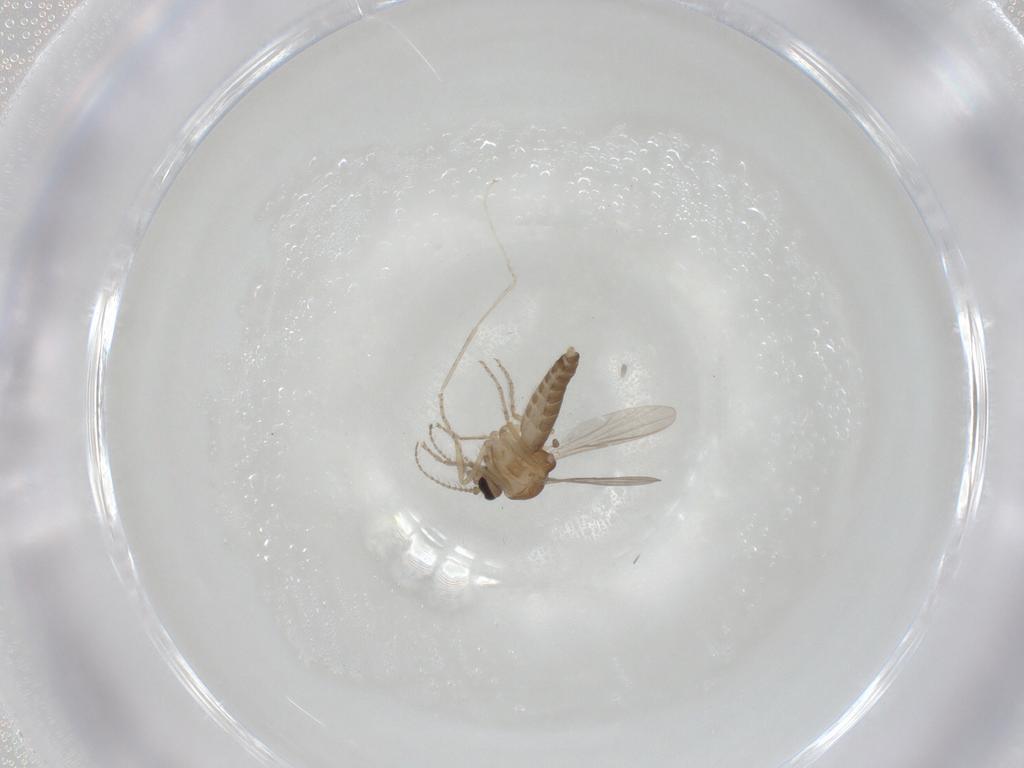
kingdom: Animalia
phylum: Arthropoda
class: Insecta
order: Diptera
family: Ceratopogonidae
